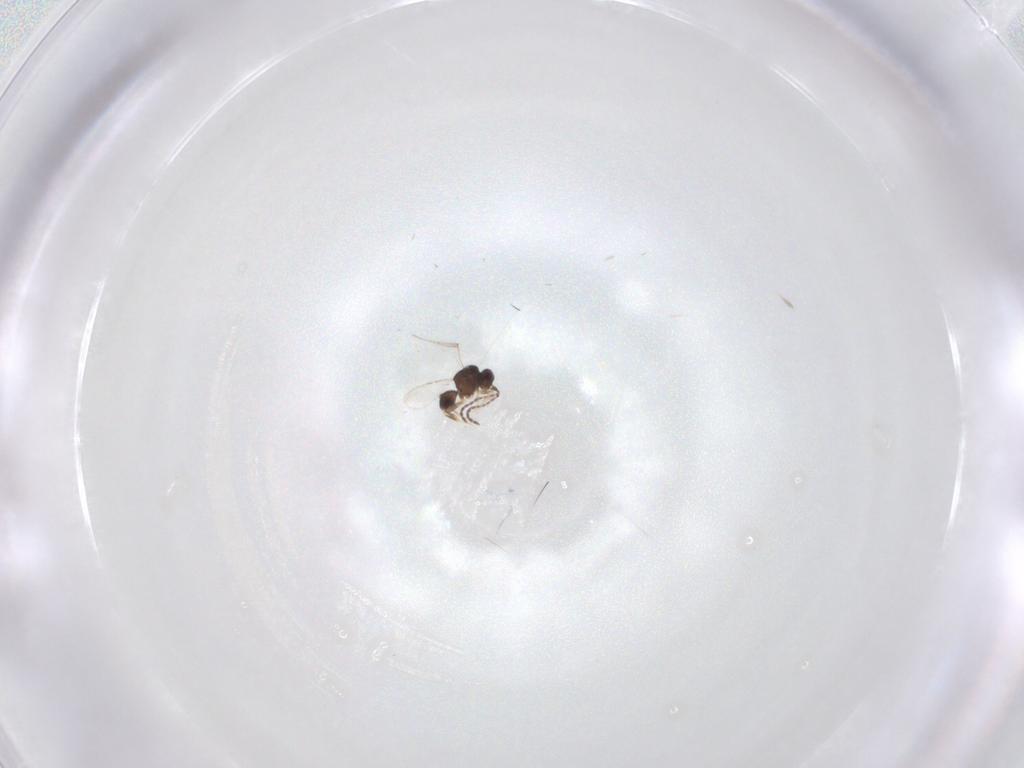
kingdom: Animalia
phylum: Arthropoda
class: Insecta
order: Hymenoptera
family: Ceraphronidae
